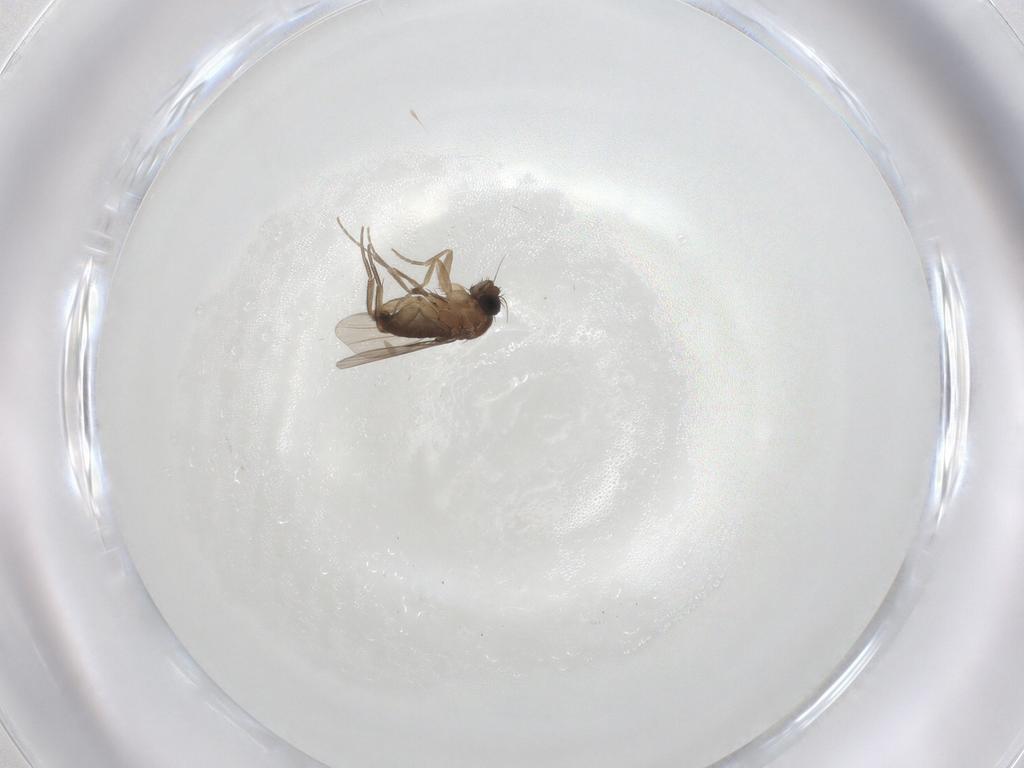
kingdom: Animalia
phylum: Arthropoda
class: Insecta
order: Diptera
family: Phoridae
